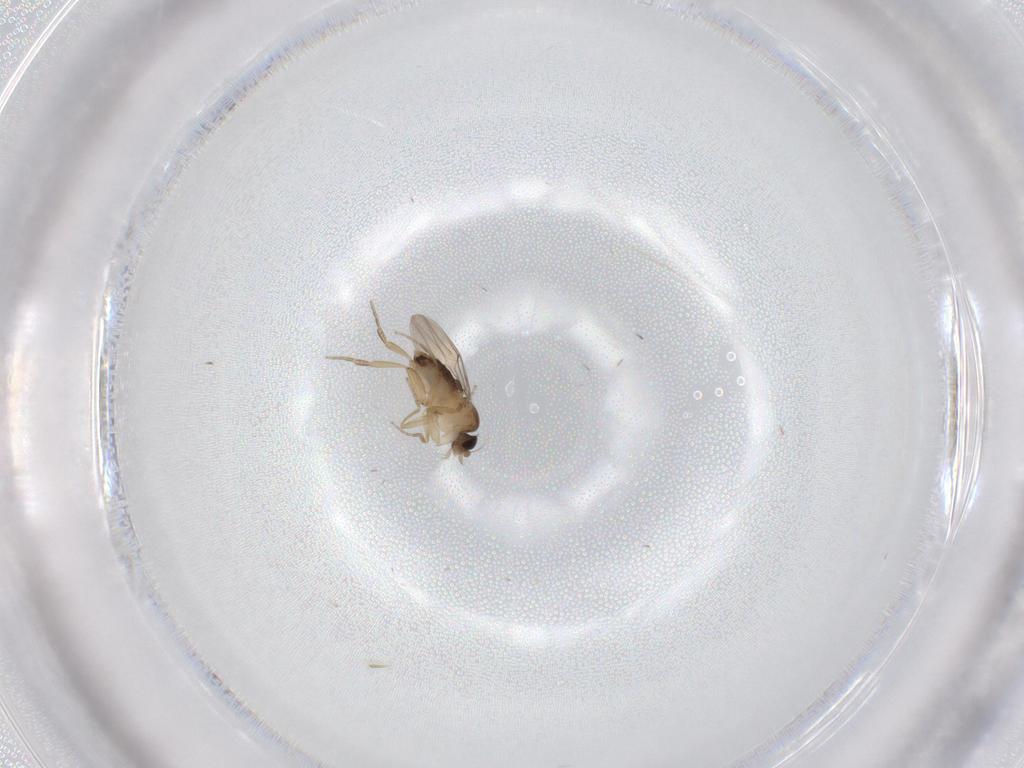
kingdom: Animalia
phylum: Arthropoda
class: Insecta
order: Diptera
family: Phoridae
